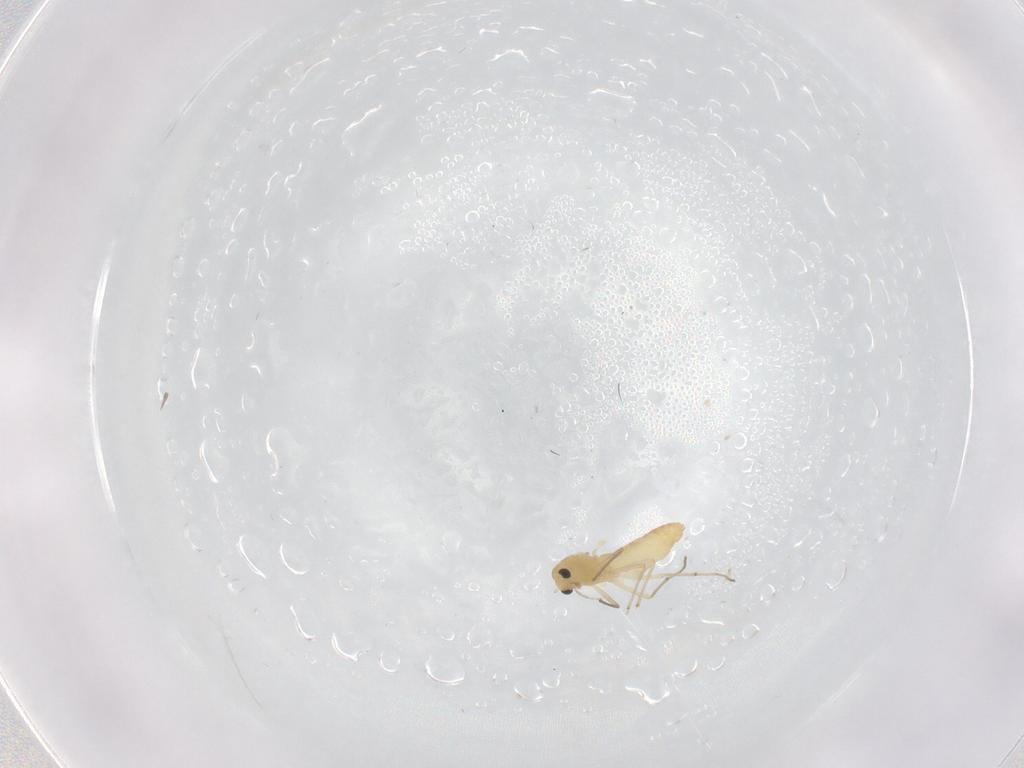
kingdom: Animalia
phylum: Arthropoda
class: Insecta
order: Diptera
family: Chironomidae
